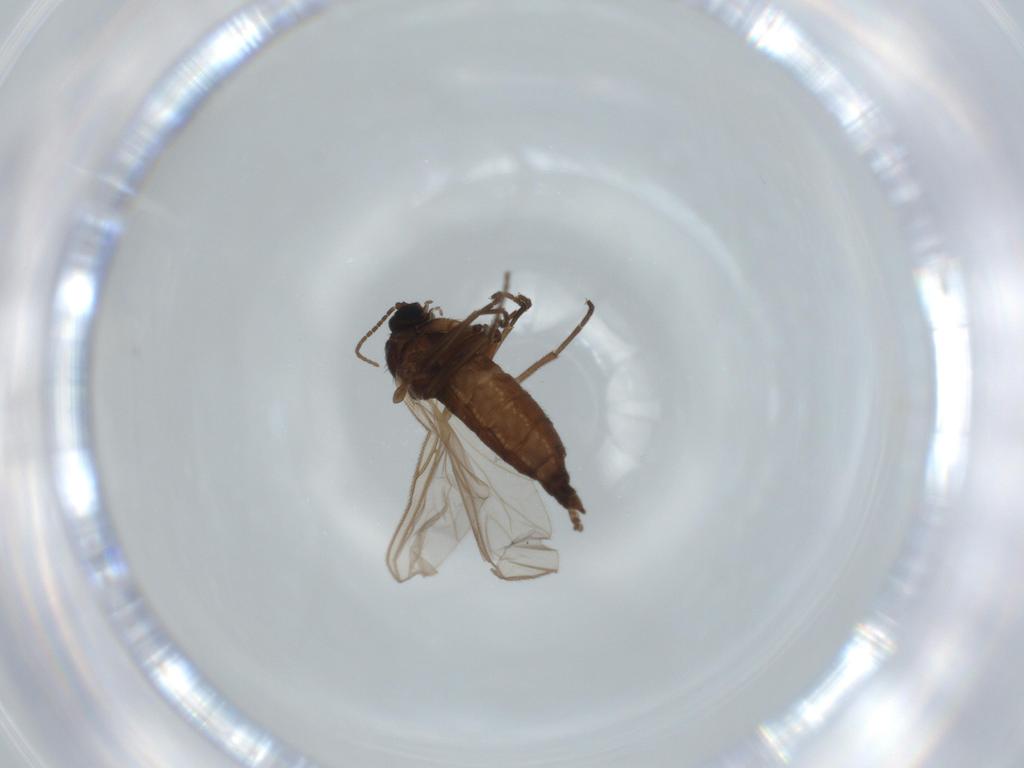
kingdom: Animalia
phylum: Arthropoda
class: Insecta
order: Diptera
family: Sciaridae
